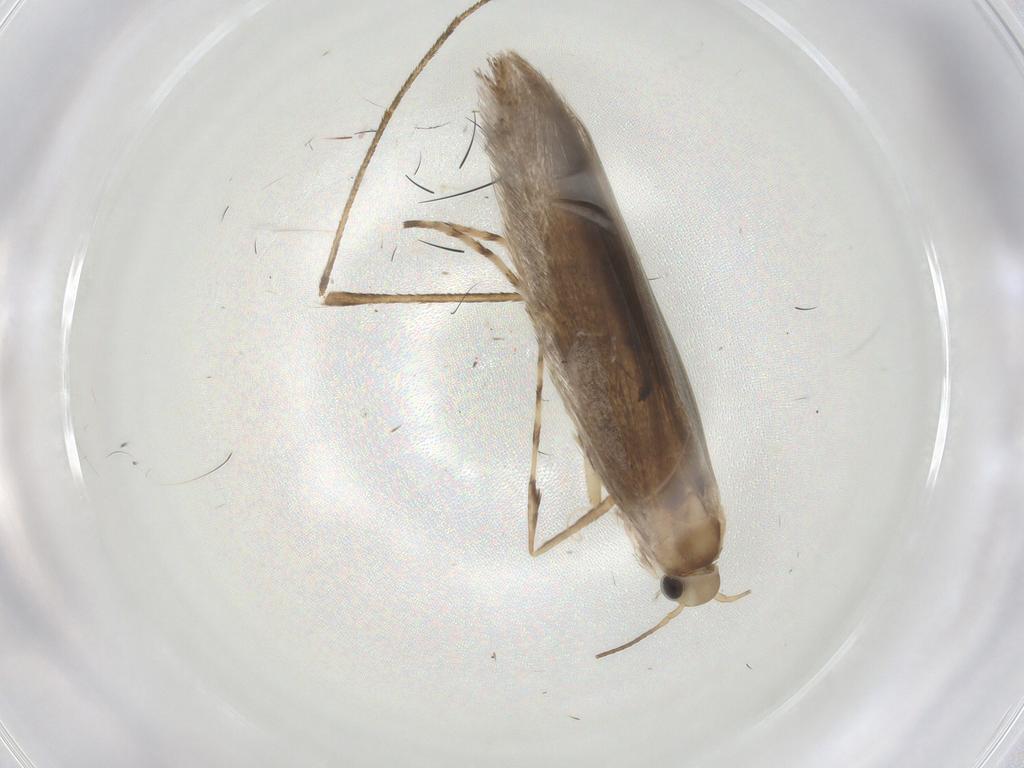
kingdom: Animalia
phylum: Arthropoda
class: Insecta
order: Lepidoptera
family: Gracillariidae
